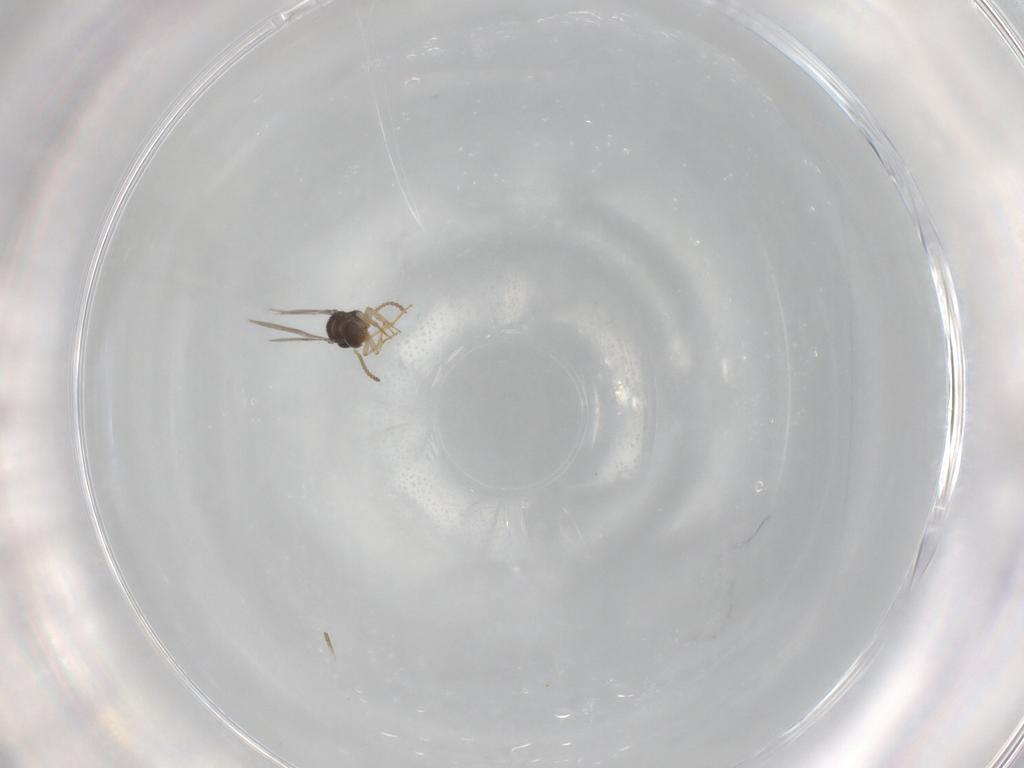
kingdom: Animalia
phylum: Arthropoda
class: Insecta
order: Hymenoptera
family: Scelionidae
